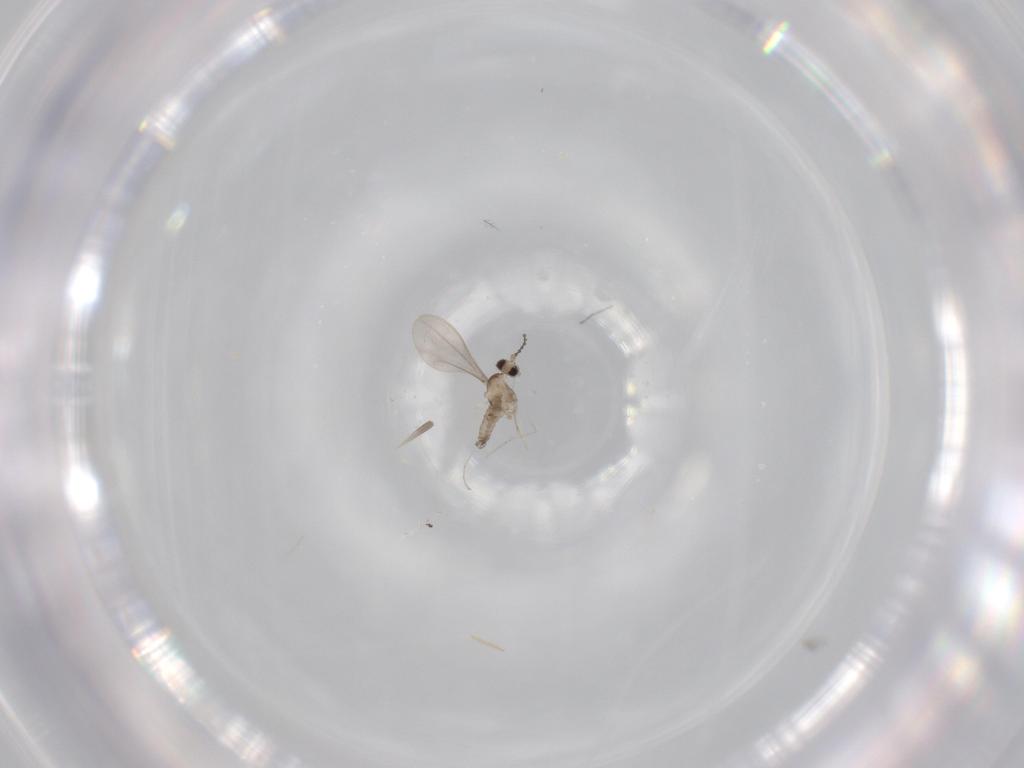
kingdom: Animalia
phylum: Arthropoda
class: Insecta
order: Diptera
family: Cecidomyiidae
